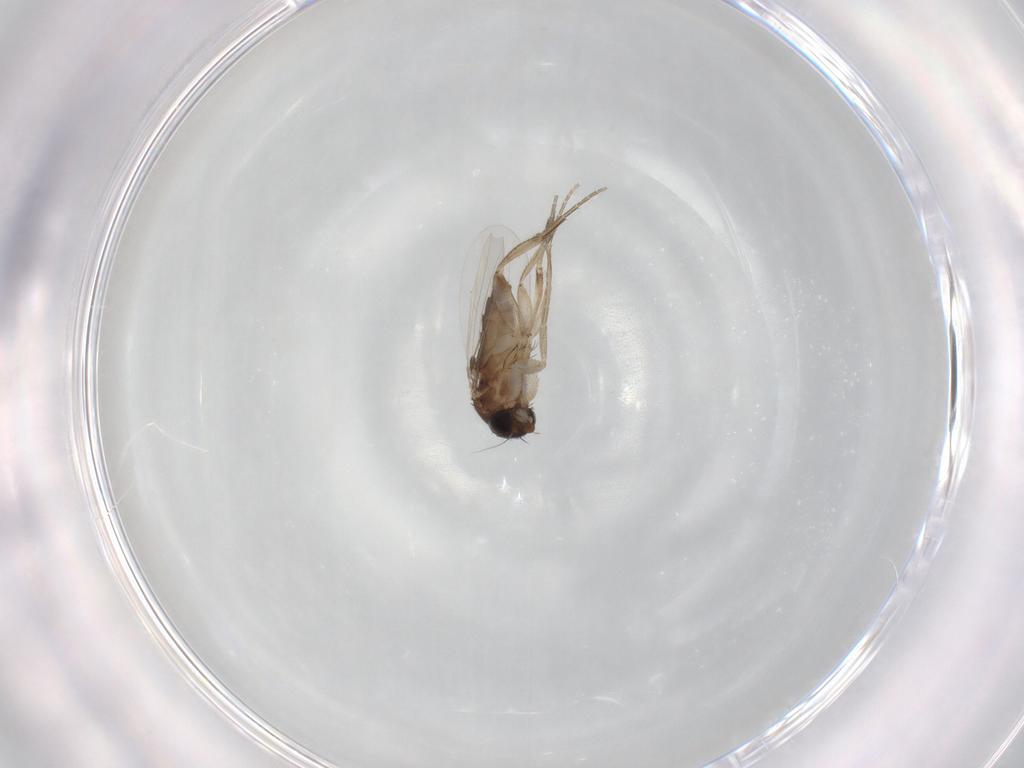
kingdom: Animalia
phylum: Arthropoda
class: Insecta
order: Diptera
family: Phoridae
